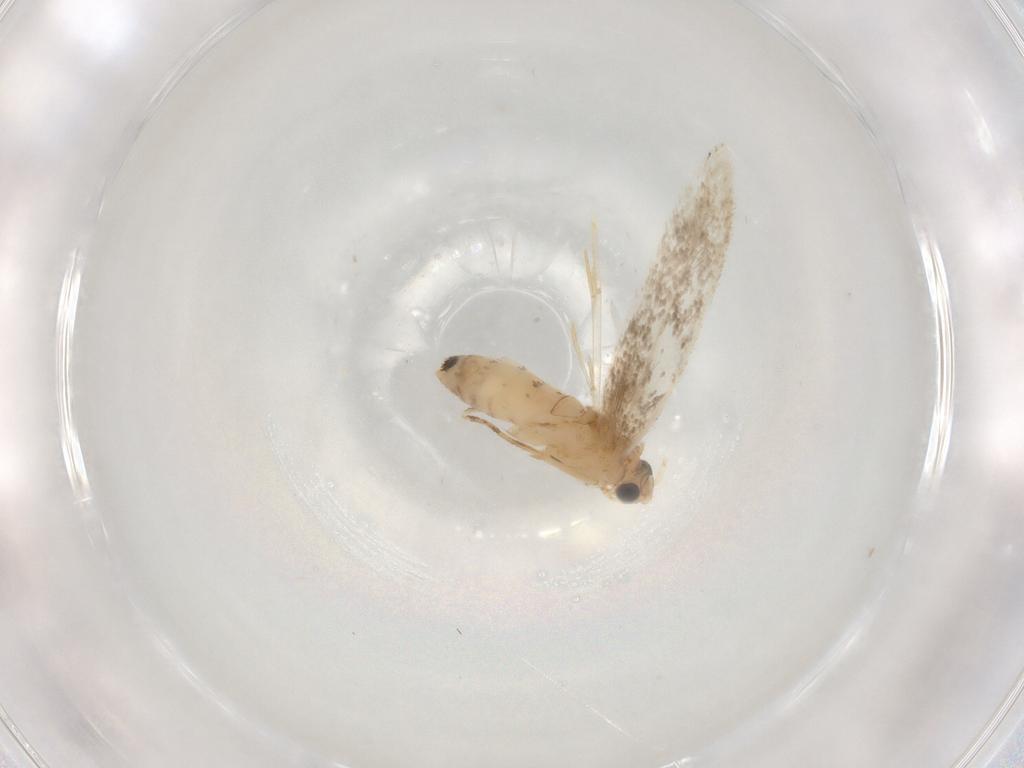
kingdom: Animalia
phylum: Arthropoda
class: Insecta
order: Lepidoptera
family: Dryadaulidae
